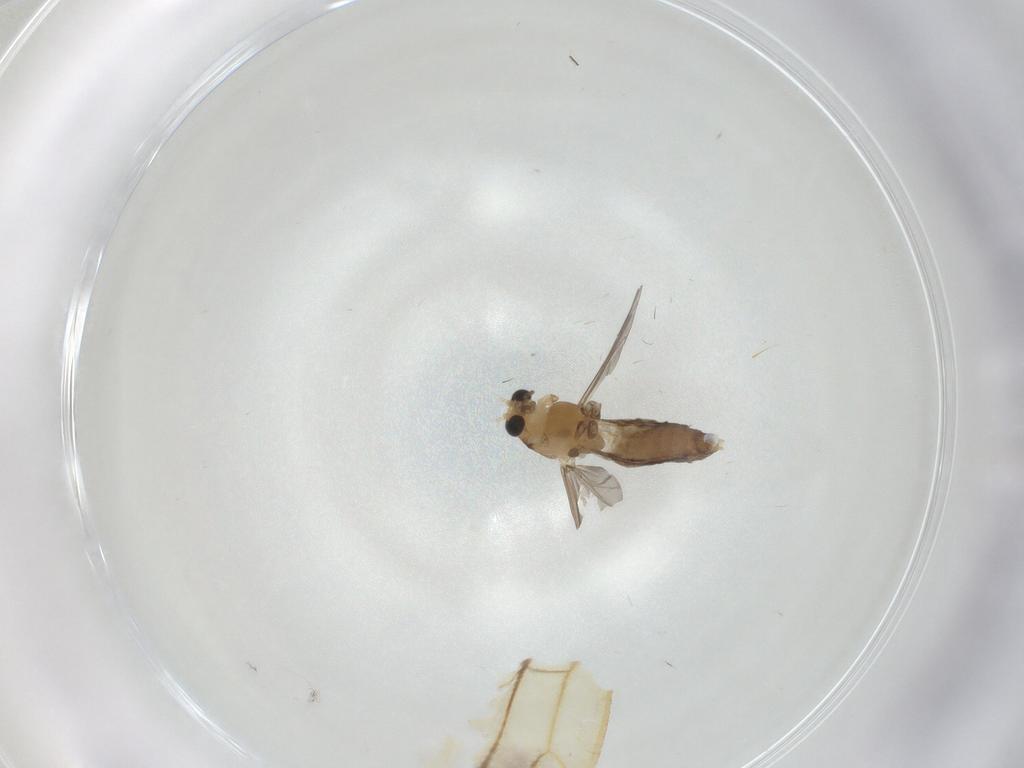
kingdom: Animalia
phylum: Arthropoda
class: Insecta
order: Diptera
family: Chironomidae
